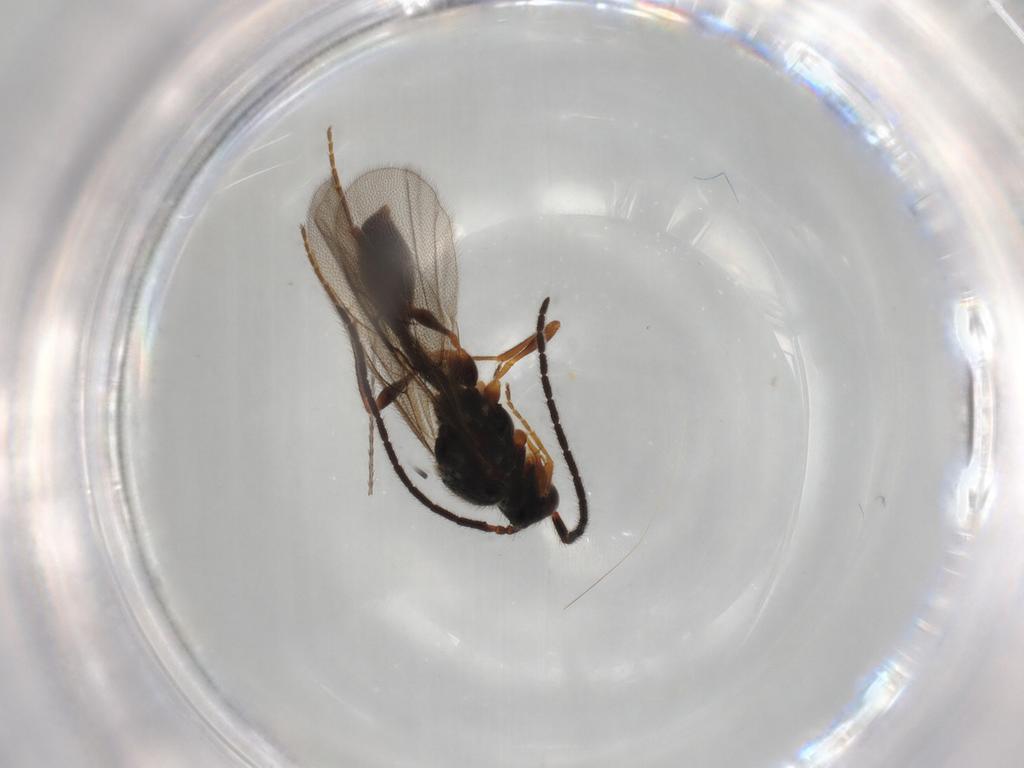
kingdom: Animalia
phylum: Arthropoda
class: Insecta
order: Hymenoptera
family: Diapriidae
